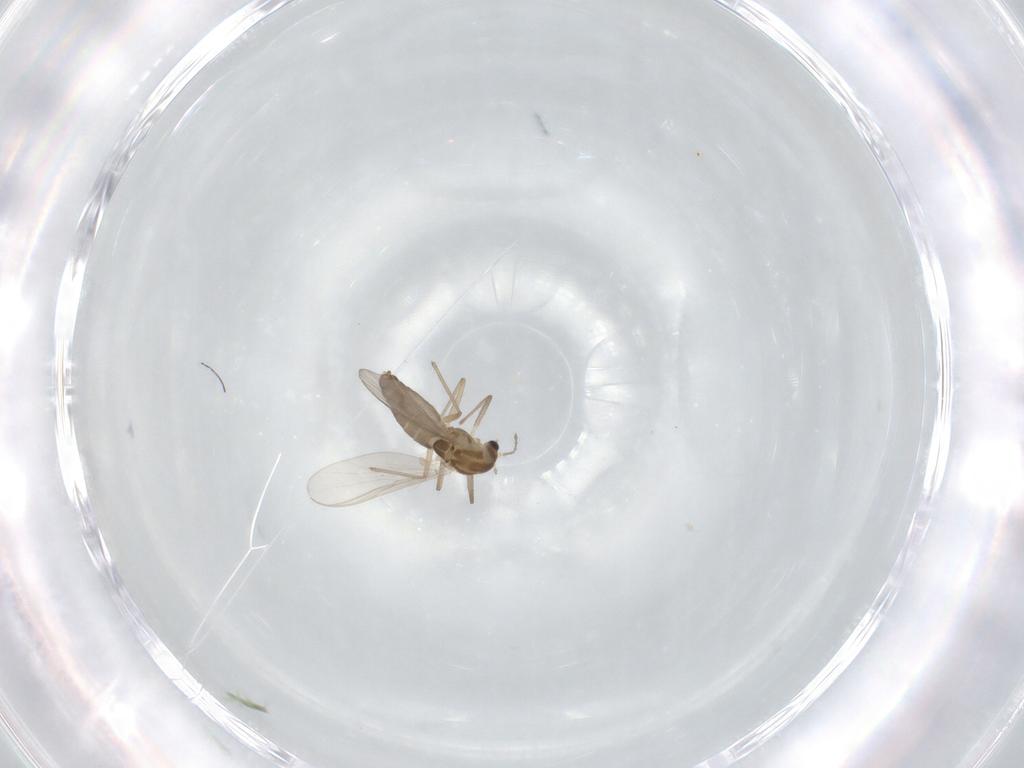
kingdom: Animalia
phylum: Arthropoda
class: Insecta
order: Diptera
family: Chironomidae
